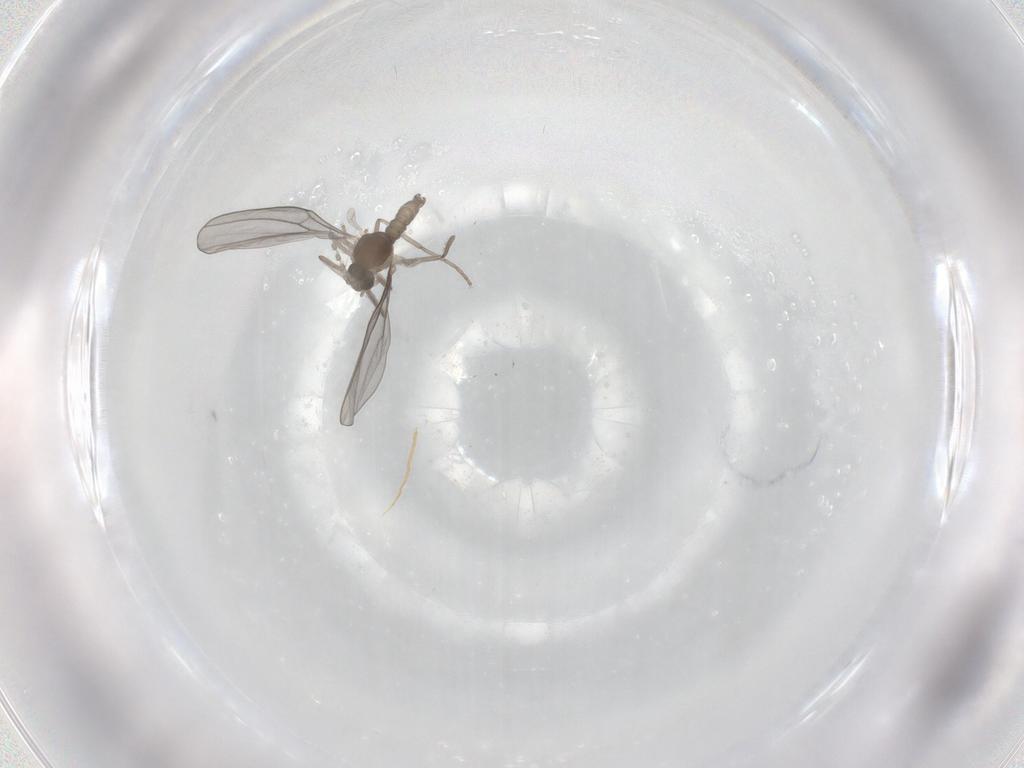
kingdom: Animalia
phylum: Arthropoda
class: Insecta
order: Diptera
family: Cecidomyiidae
